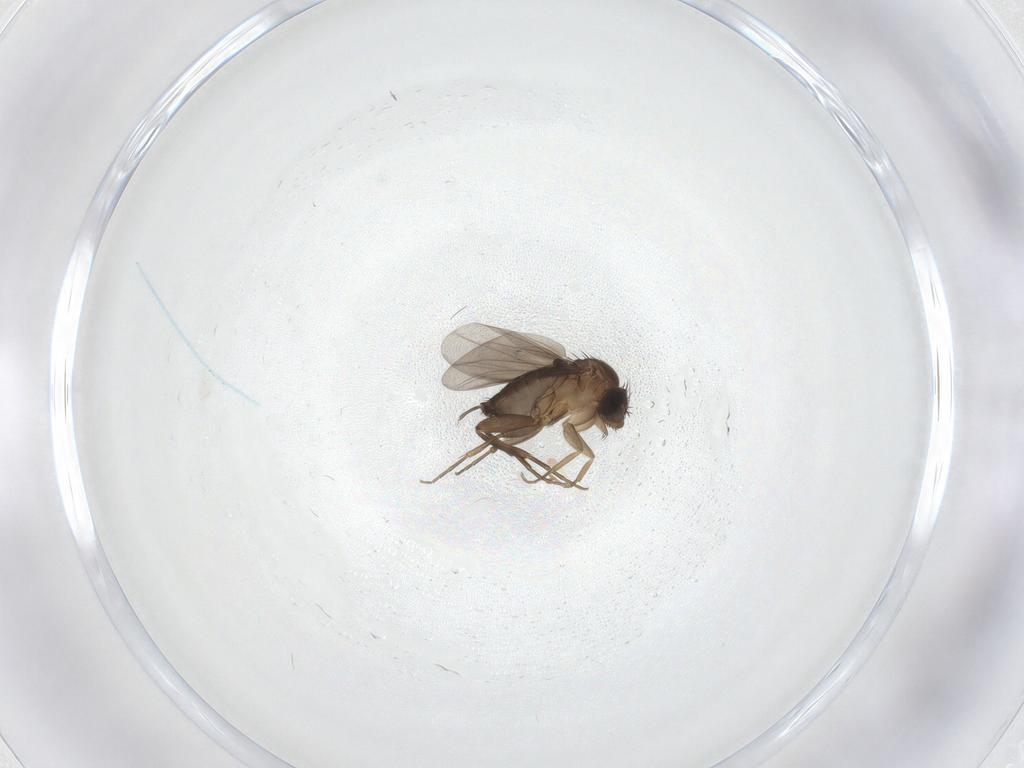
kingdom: Animalia
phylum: Arthropoda
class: Insecta
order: Diptera
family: Phoridae
